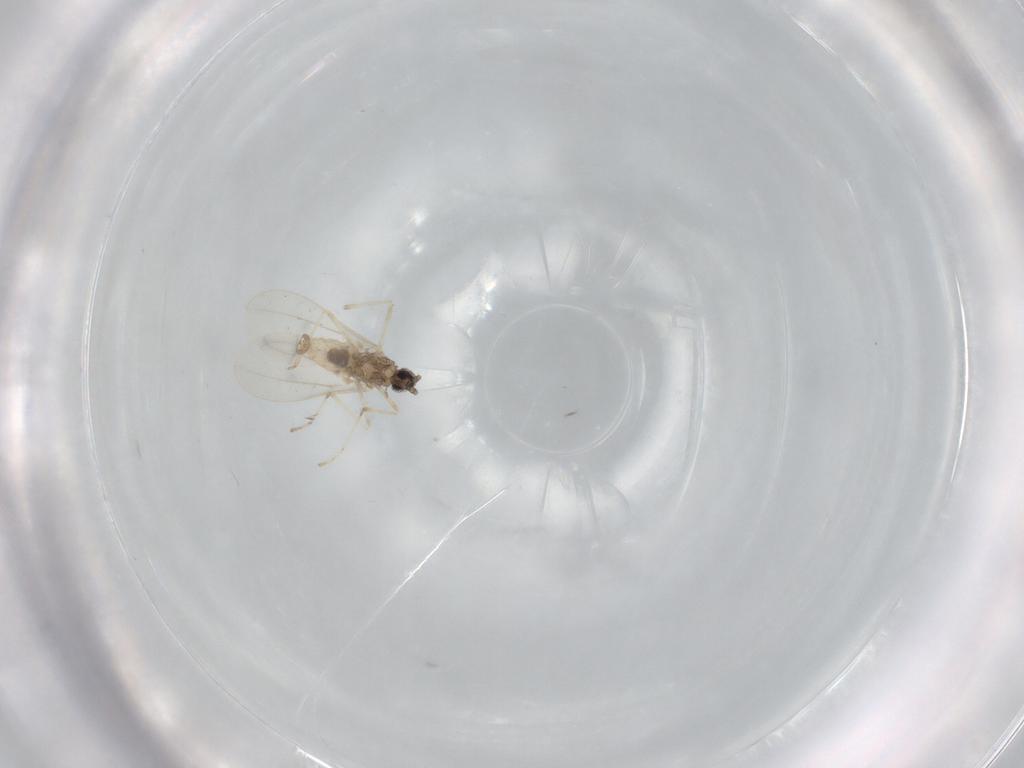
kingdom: Animalia
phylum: Arthropoda
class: Insecta
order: Diptera
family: Cecidomyiidae
